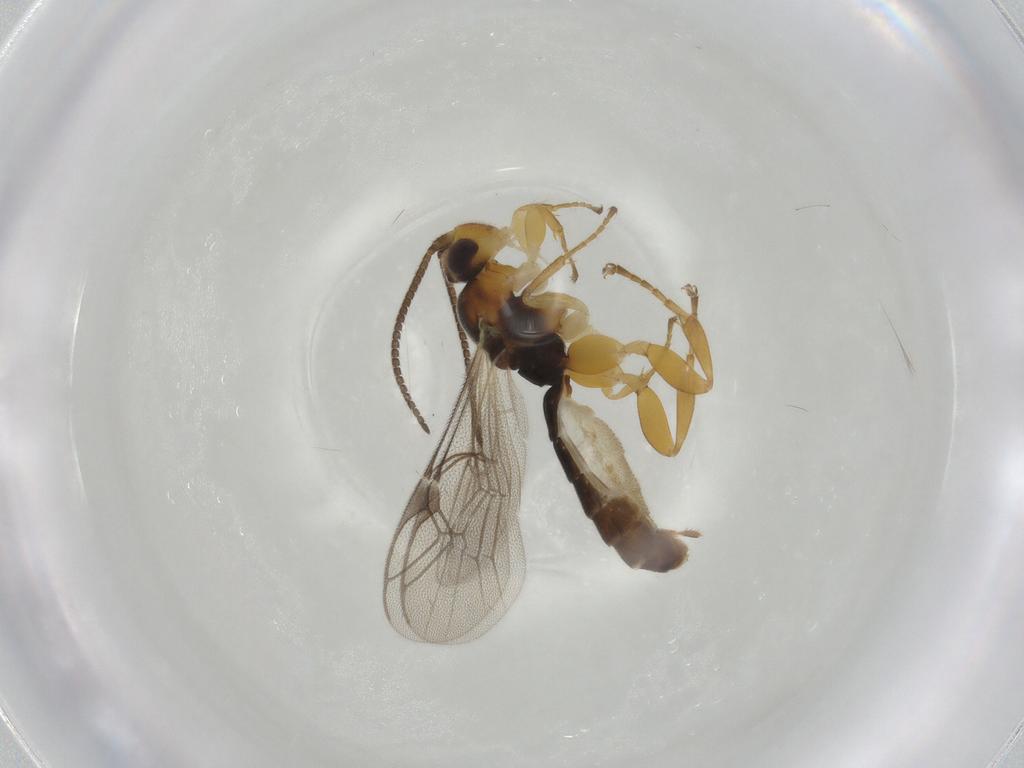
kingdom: Animalia
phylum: Arthropoda
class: Insecta
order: Hymenoptera
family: Ichneumonidae
